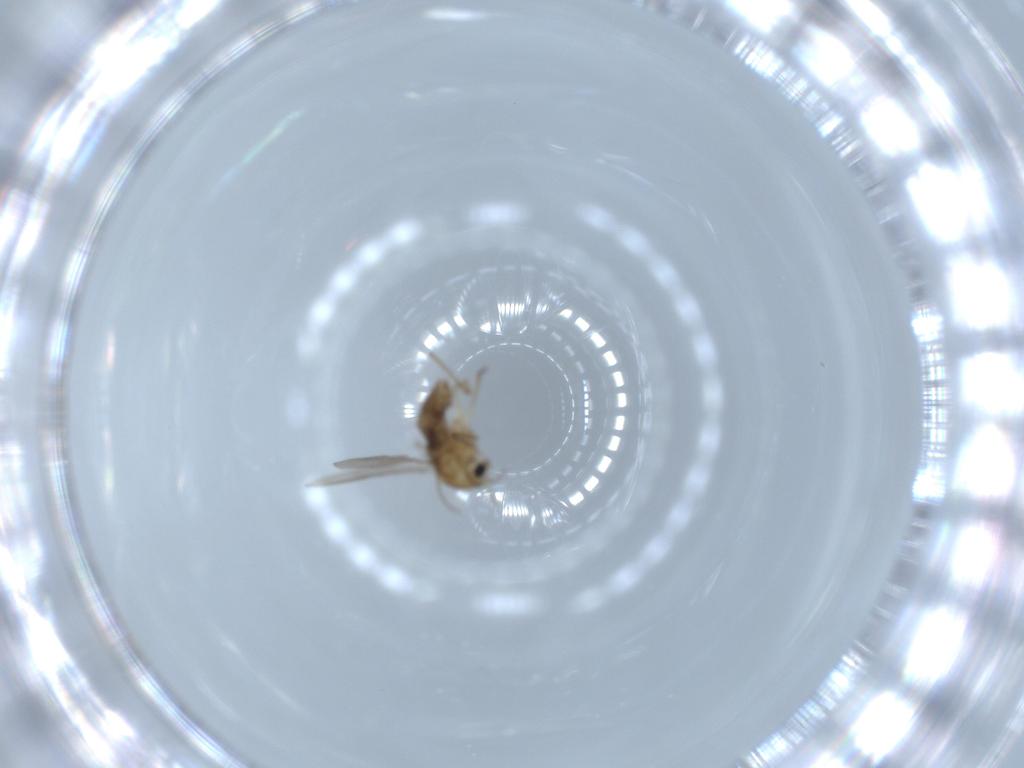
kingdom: Animalia
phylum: Arthropoda
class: Insecta
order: Diptera
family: Chironomidae
